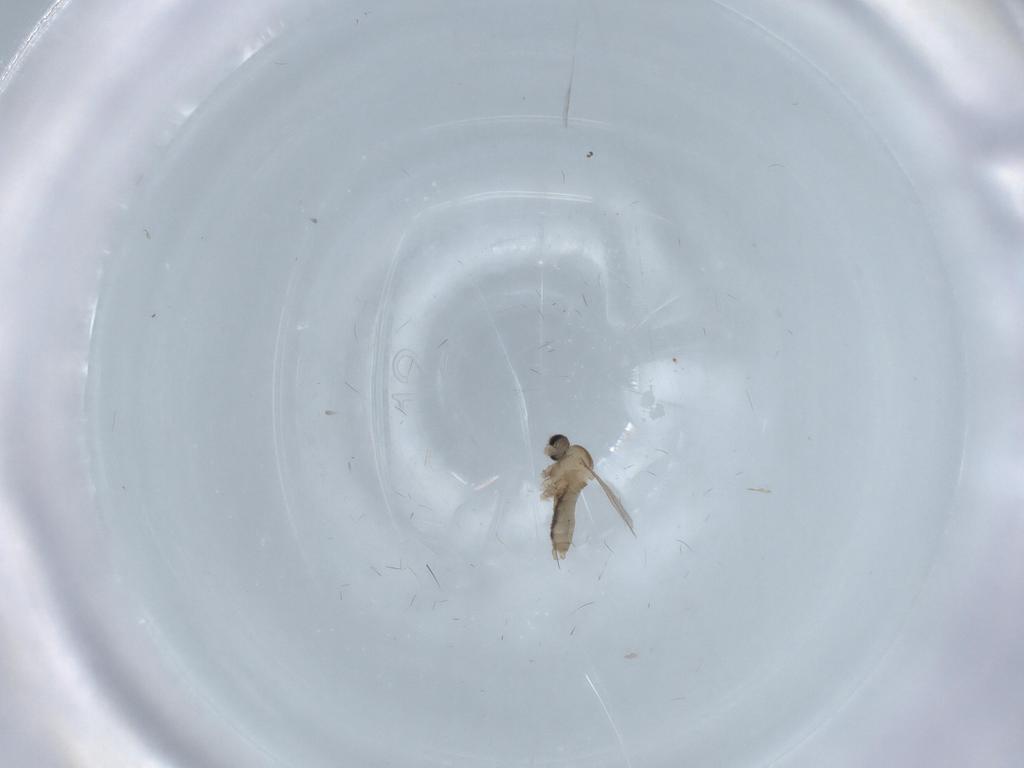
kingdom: Animalia
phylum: Arthropoda
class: Insecta
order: Diptera
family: Cecidomyiidae
